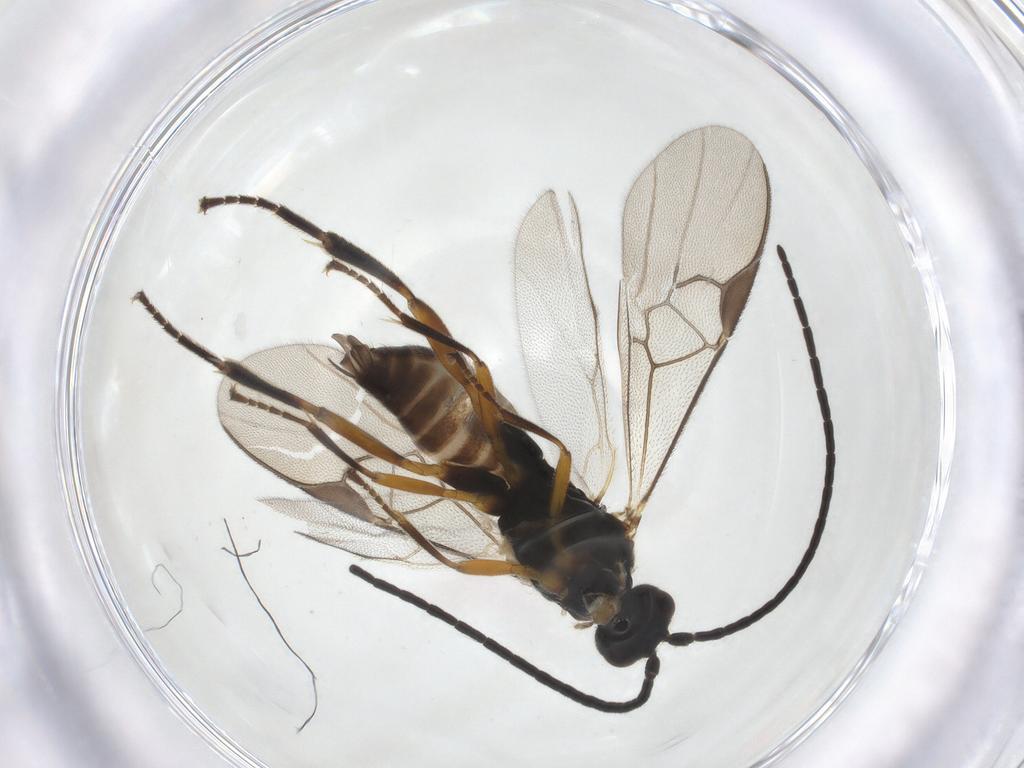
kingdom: Animalia
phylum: Arthropoda
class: Insecta
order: Hymenoptera
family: Braconidae
